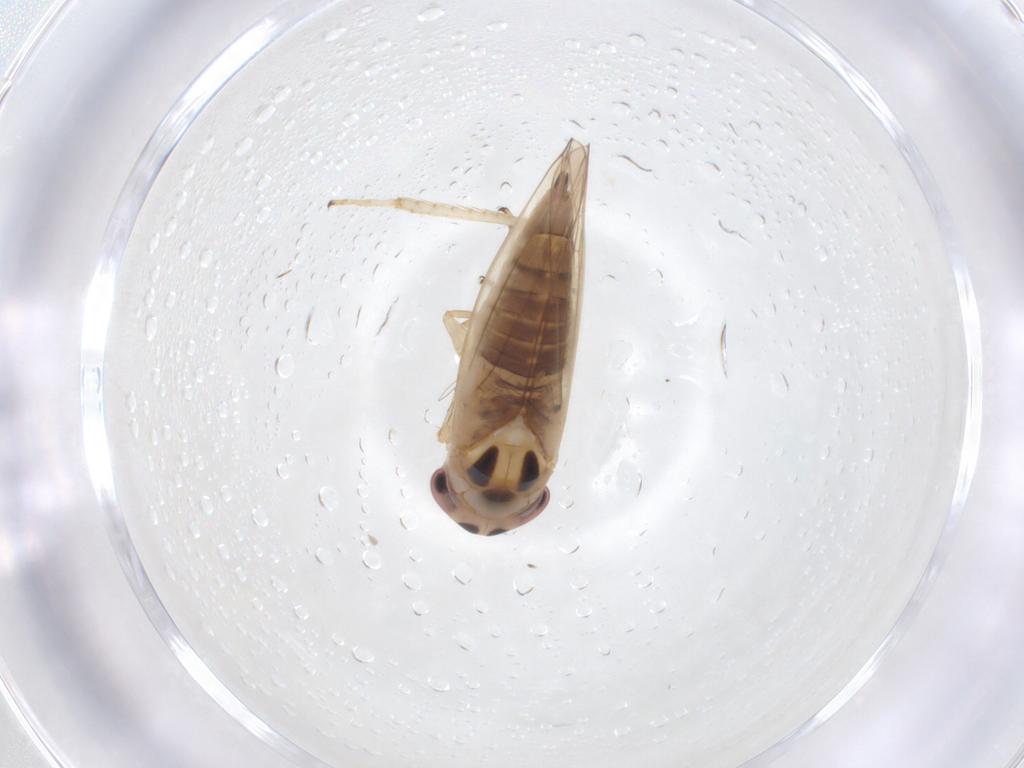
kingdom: Animalia
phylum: Arthropoda
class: Insecta
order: Hemiptera
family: Cicadellidae
